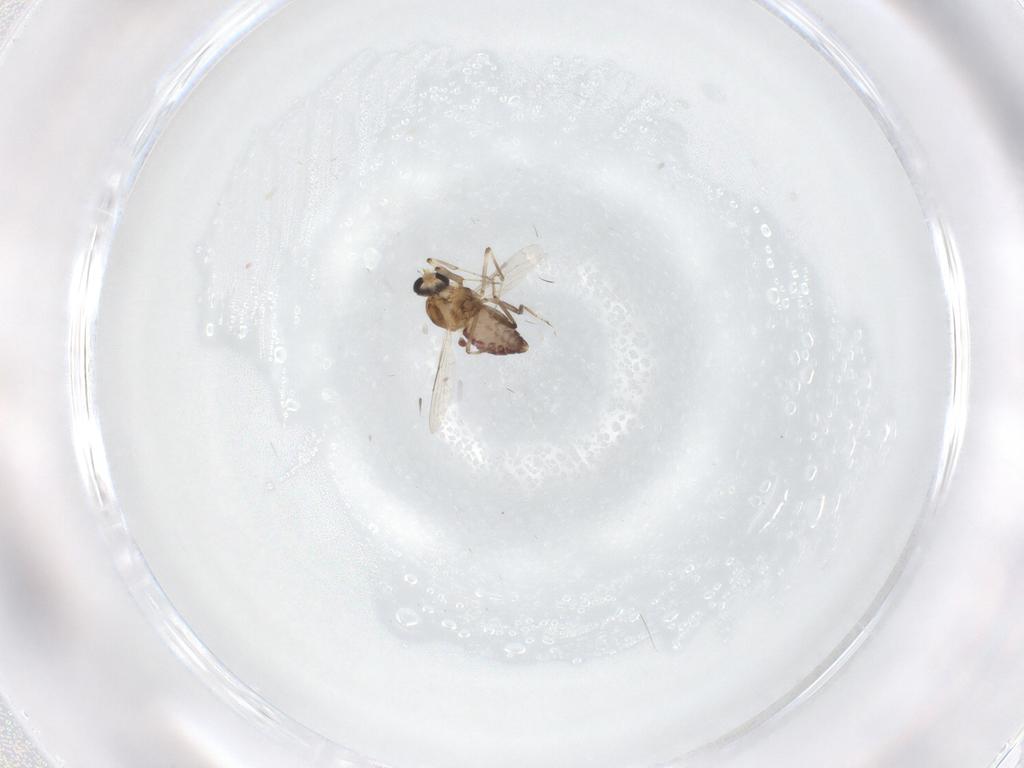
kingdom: Animalia
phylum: Arthropoda
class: Insecta
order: Diptera
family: Ceratopogonidae
